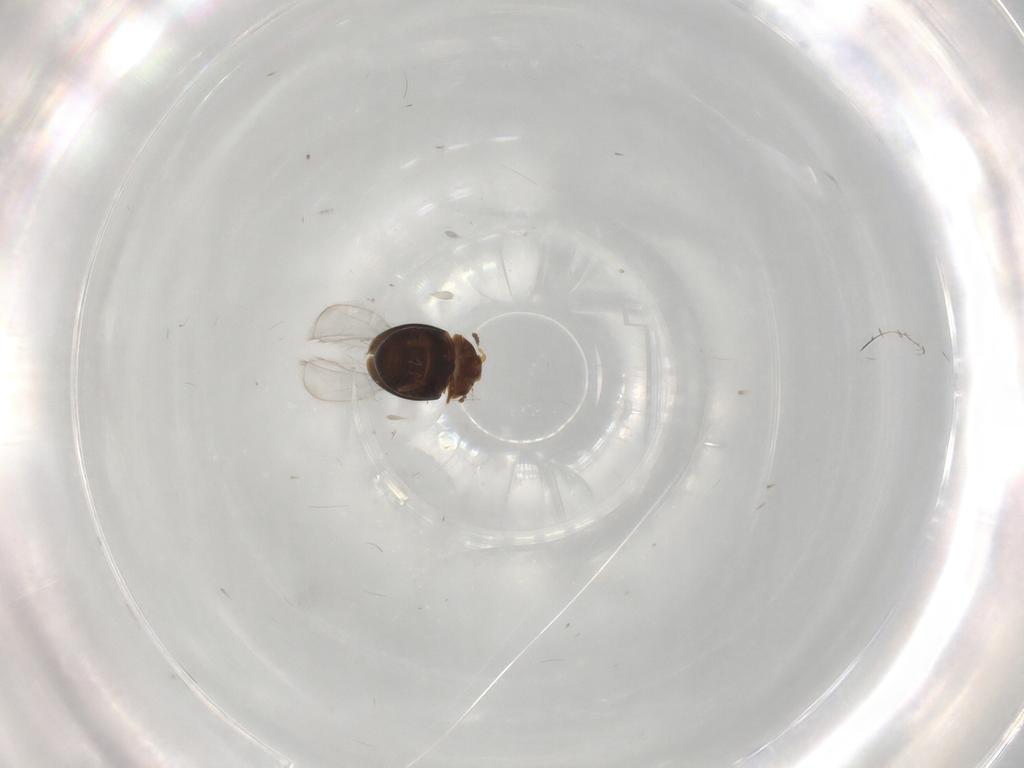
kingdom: Animalia
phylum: Arthropoda
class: Insecta
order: Coleoptera
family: Corylophidae
